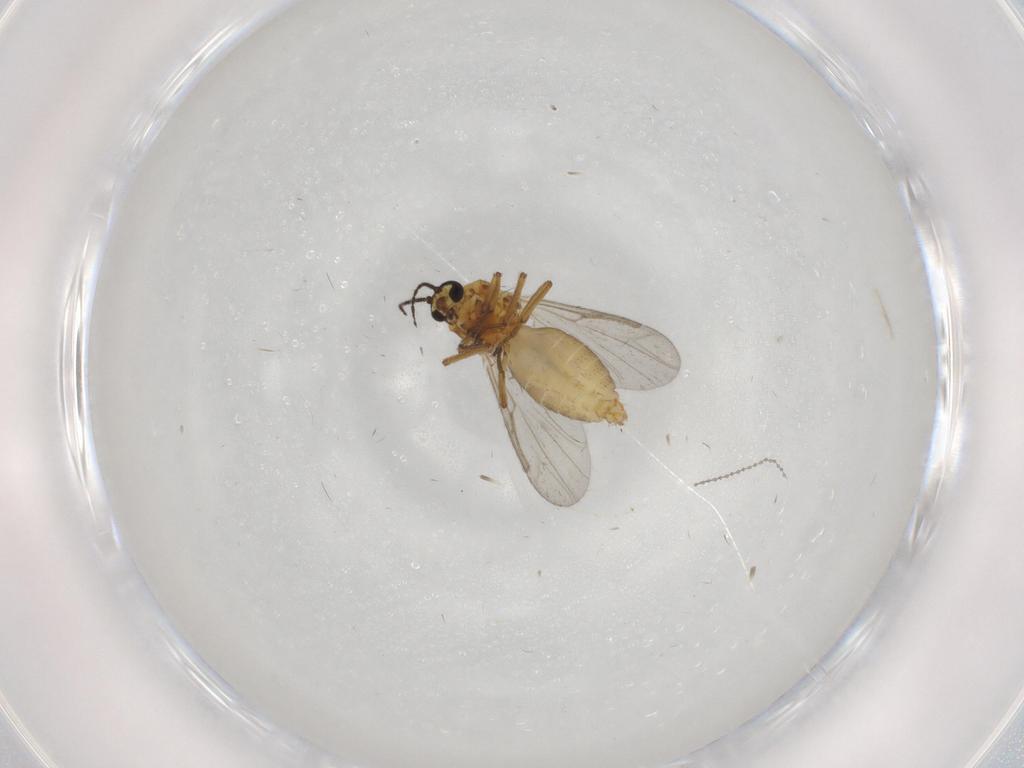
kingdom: Animalia
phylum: Arthropoda
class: Insecta
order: Diptera
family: Ceratopogonidae
